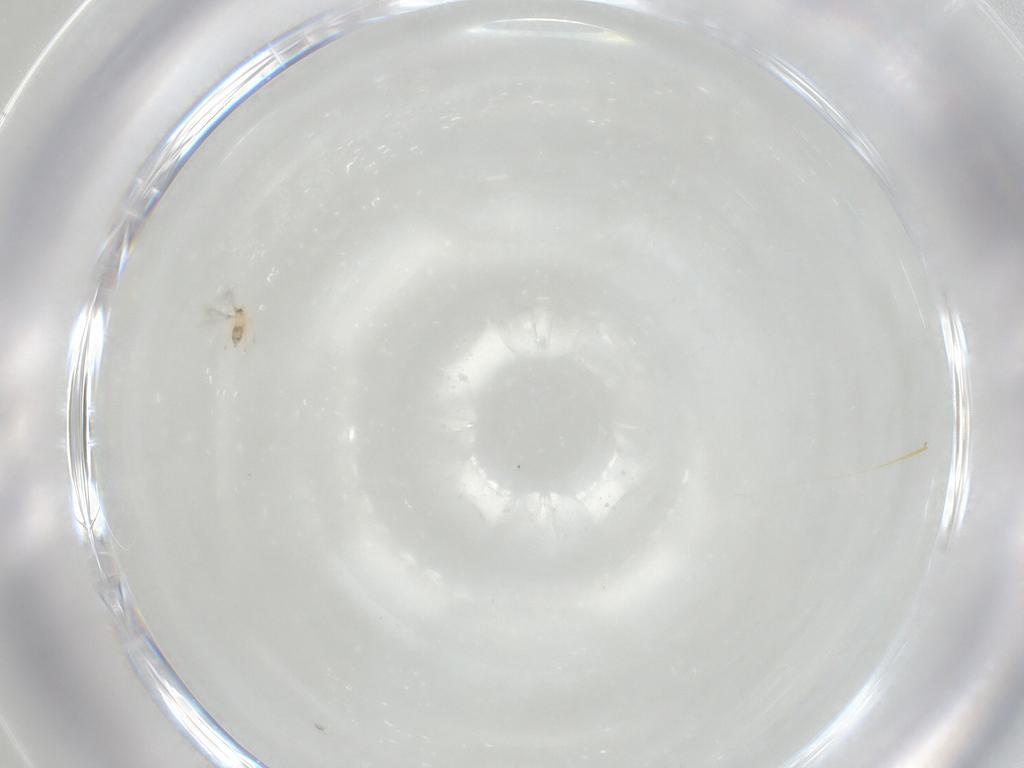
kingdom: Animalia
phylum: Arthropoda
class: Insecta
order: Hymenoptera
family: Mymaridae
